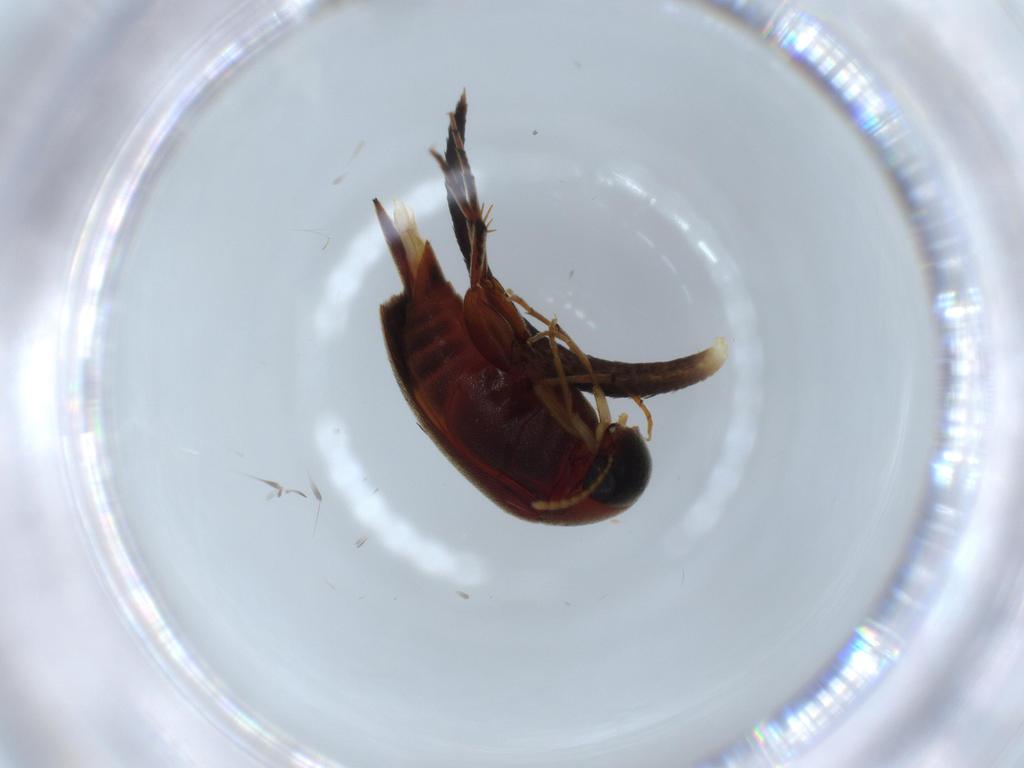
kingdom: Animalia
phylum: Arthropoda
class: Insecta
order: Coleoptera
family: Mordellidae
